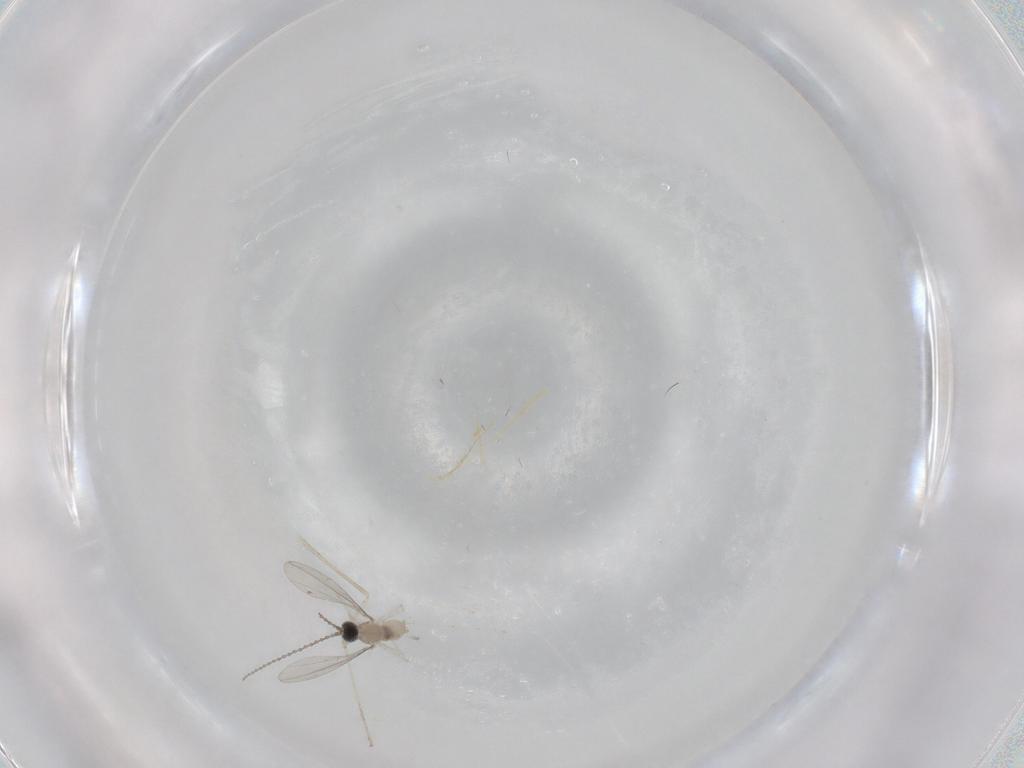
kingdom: Animalia
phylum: Arthropoda
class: Insecta
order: Diptera
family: Cecidomyiidae
